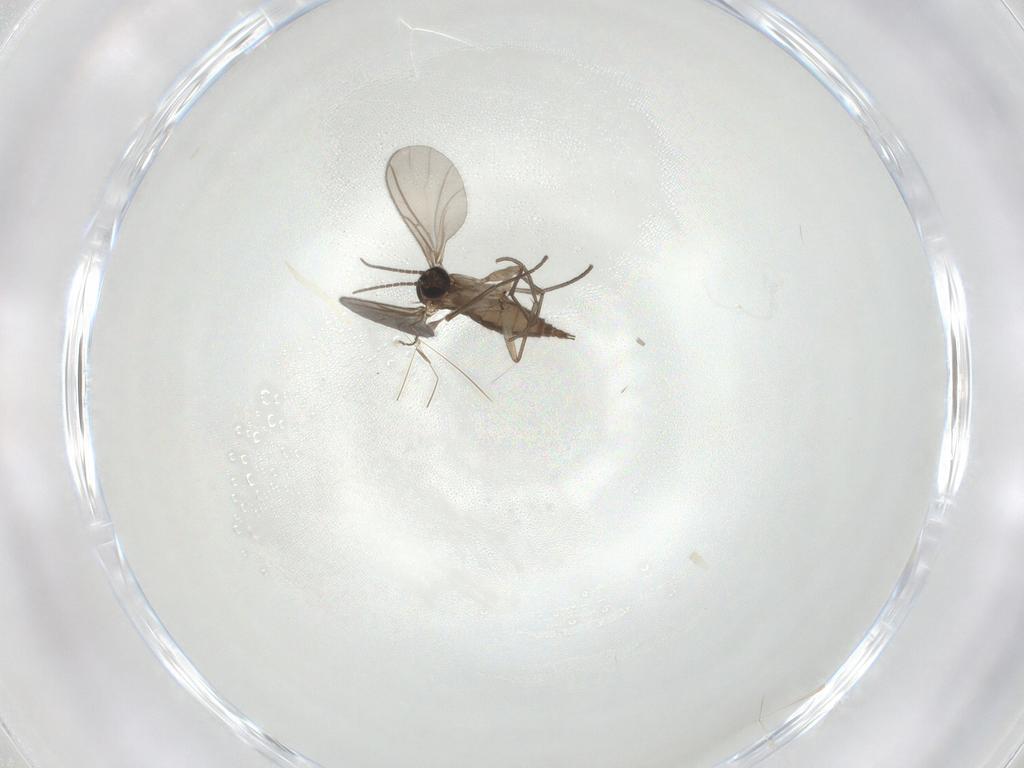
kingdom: Animalia
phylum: Arthropoda
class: Insecta
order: Diptera
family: Sciaridae
